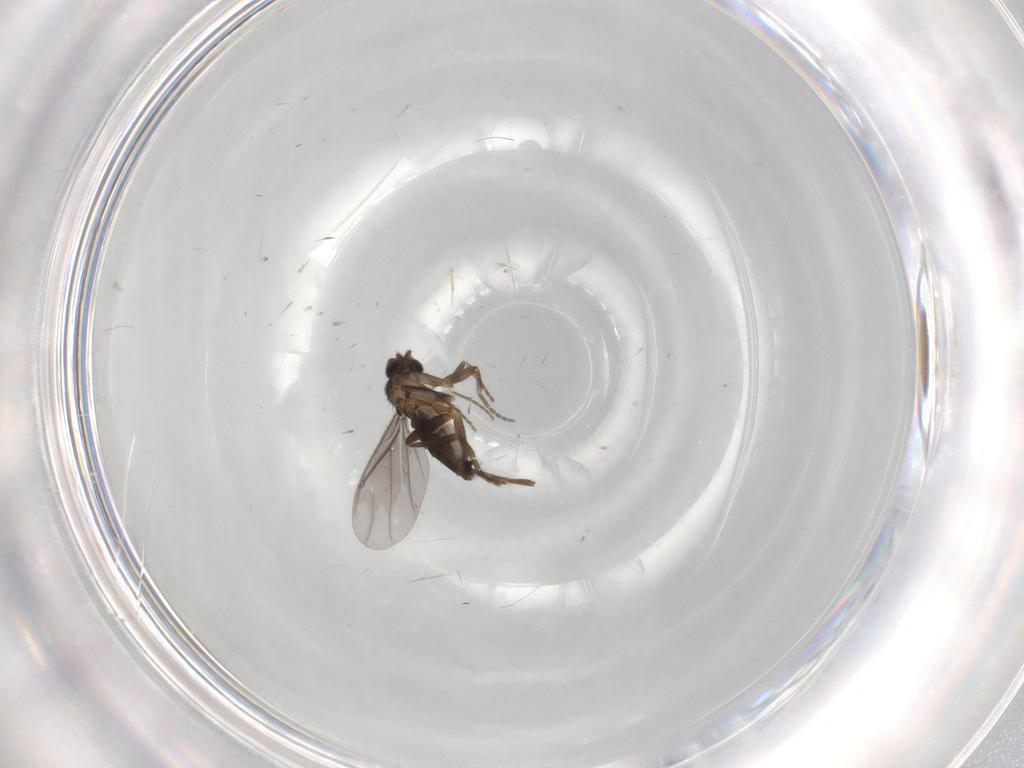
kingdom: Animalia
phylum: Arthropoda
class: Insecta
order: Diptera
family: Phoridae
